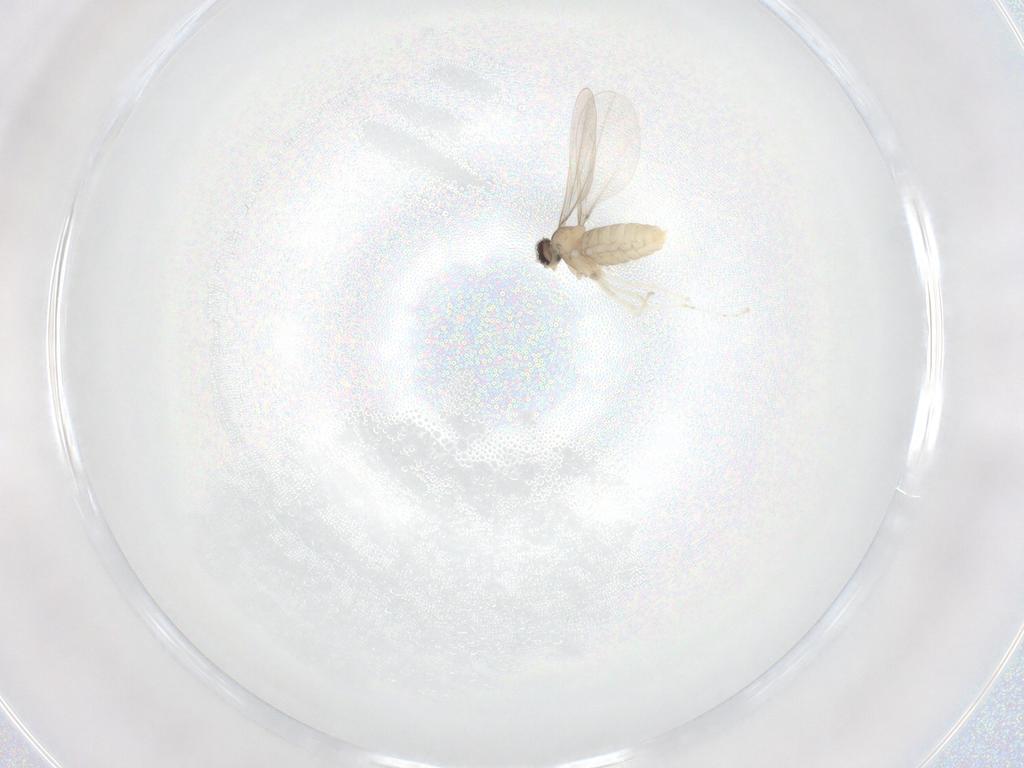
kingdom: Animalia
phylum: Arthropoda
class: Insecta
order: Diptera
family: Cecidomyiidae
